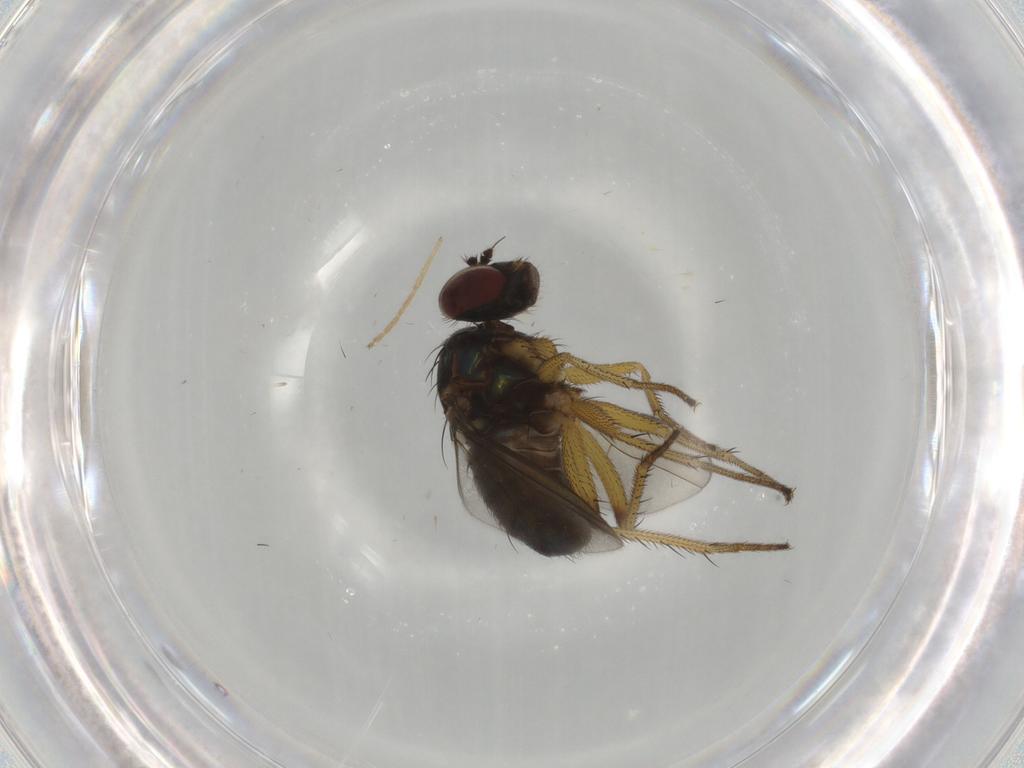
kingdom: Animalia
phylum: Arthropoda
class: Insecta
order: Diptera
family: Dolichopodidae
